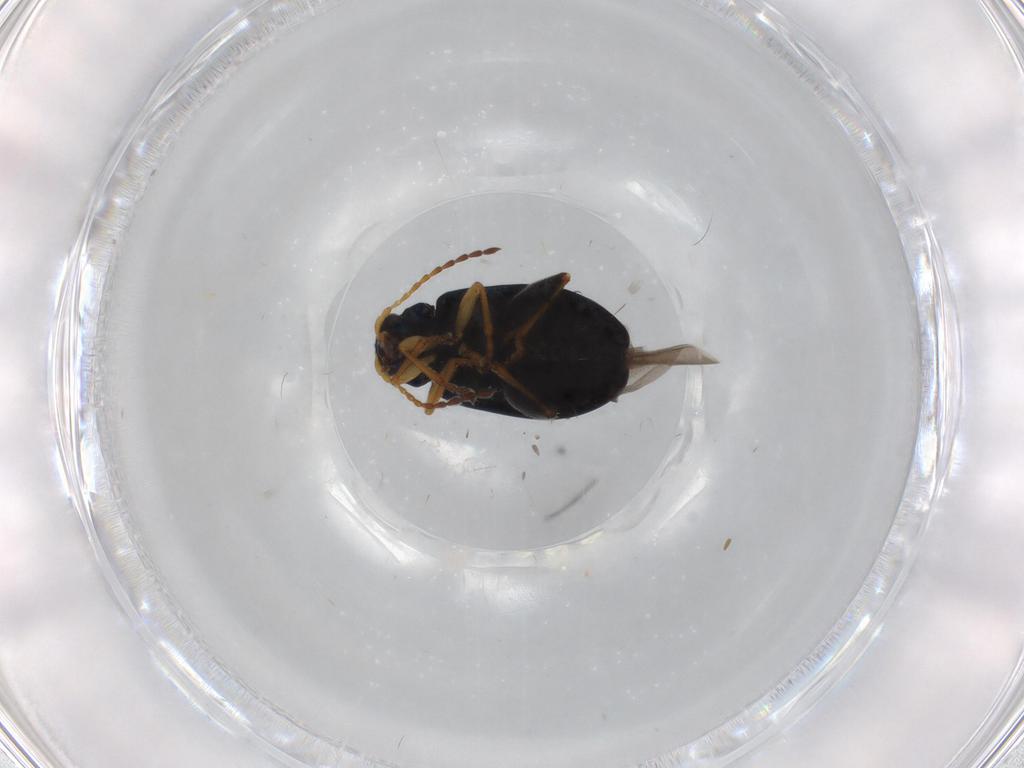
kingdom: Animalia
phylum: Arthropoda
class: Insecta
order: Coleoptera
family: Chrysomelidae
